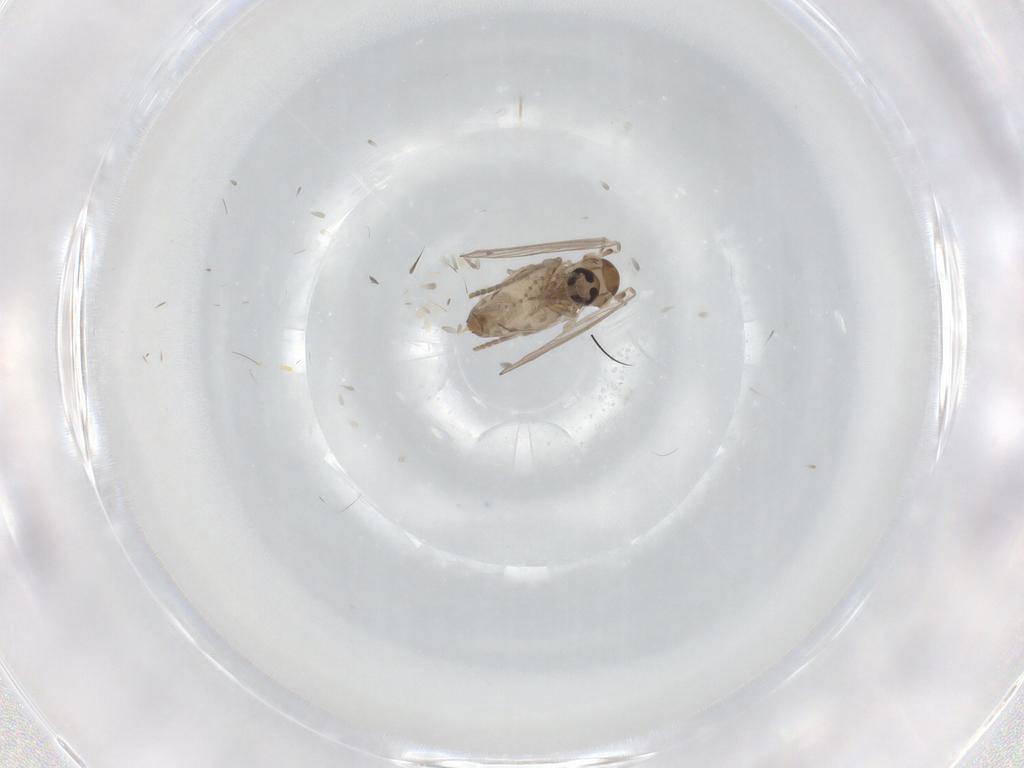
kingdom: Animalia
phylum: Arthropoda
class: Insecta
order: Diptera
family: Psychodidae
